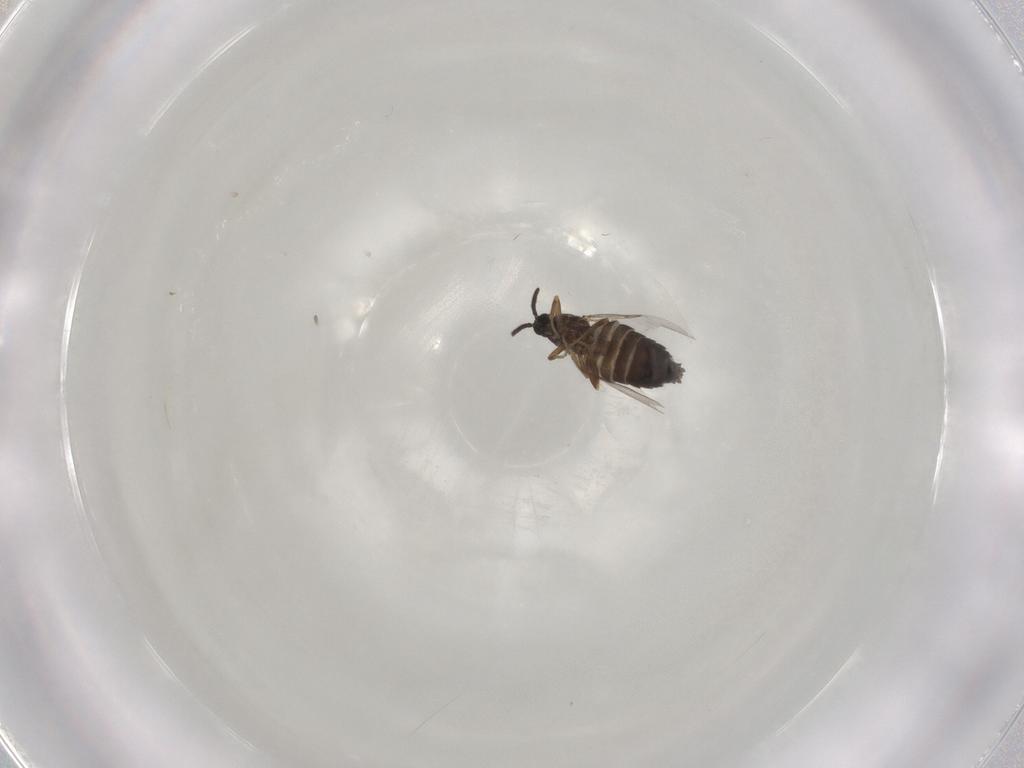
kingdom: Animalia
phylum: Arthropoda
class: Insecta
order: Diptera
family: Scatopsidae
